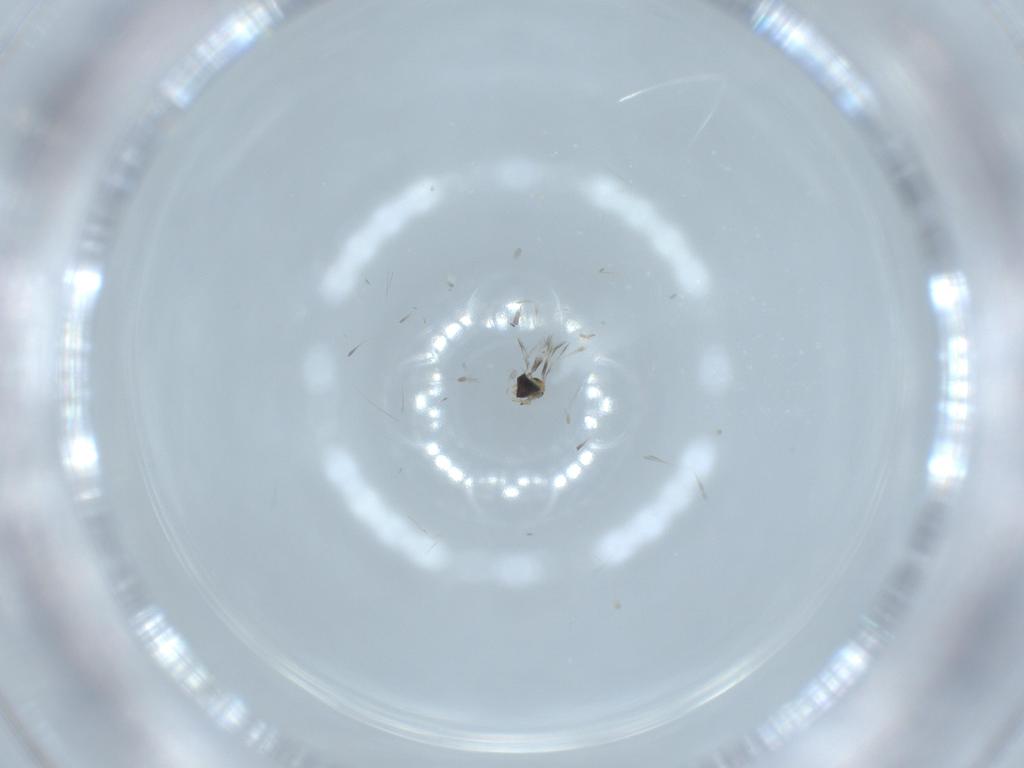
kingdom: Animalia
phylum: Arthropoda
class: Insecta
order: Hymenoptera
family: Signiphoridae
